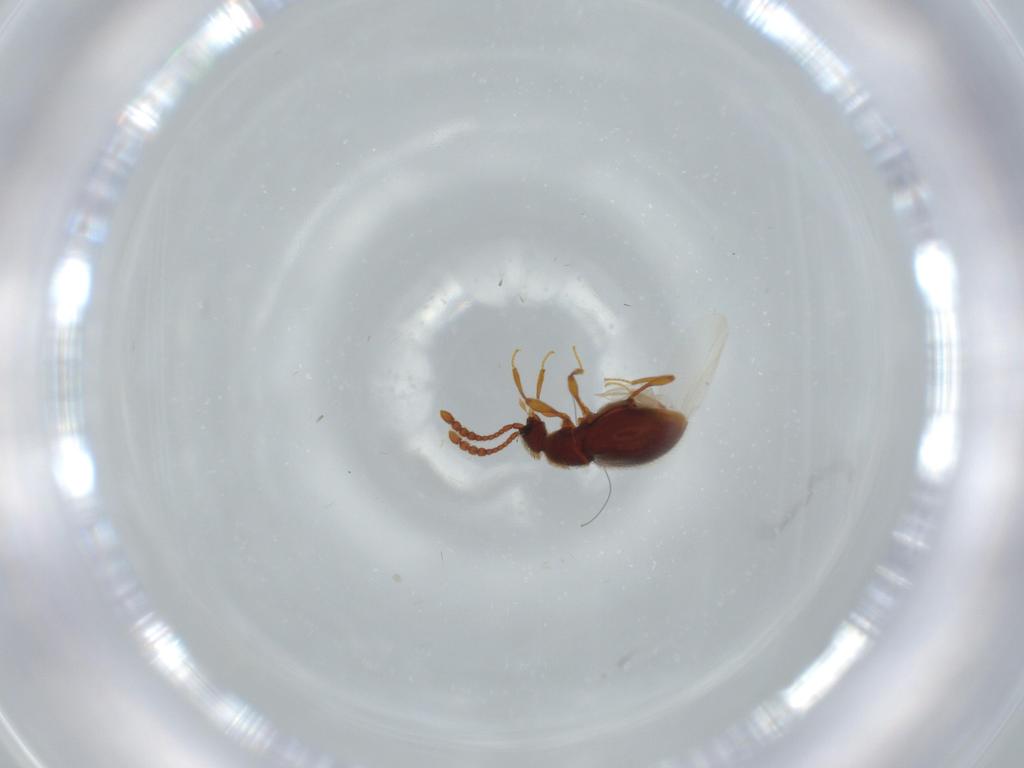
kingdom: Animalia
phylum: Arthropoda
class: Insecta
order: Coleoptera
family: Staphylinidae
